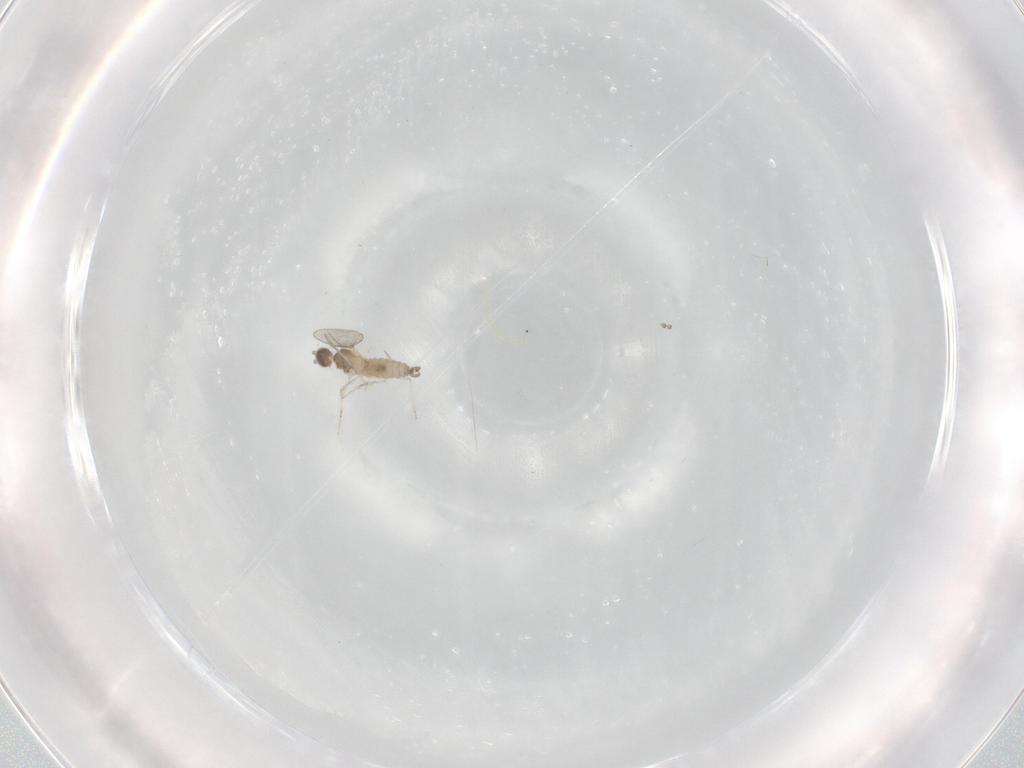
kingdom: Animalia
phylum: Arthropoda
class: Insecta
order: Diptera
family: Cecidomyiidae
